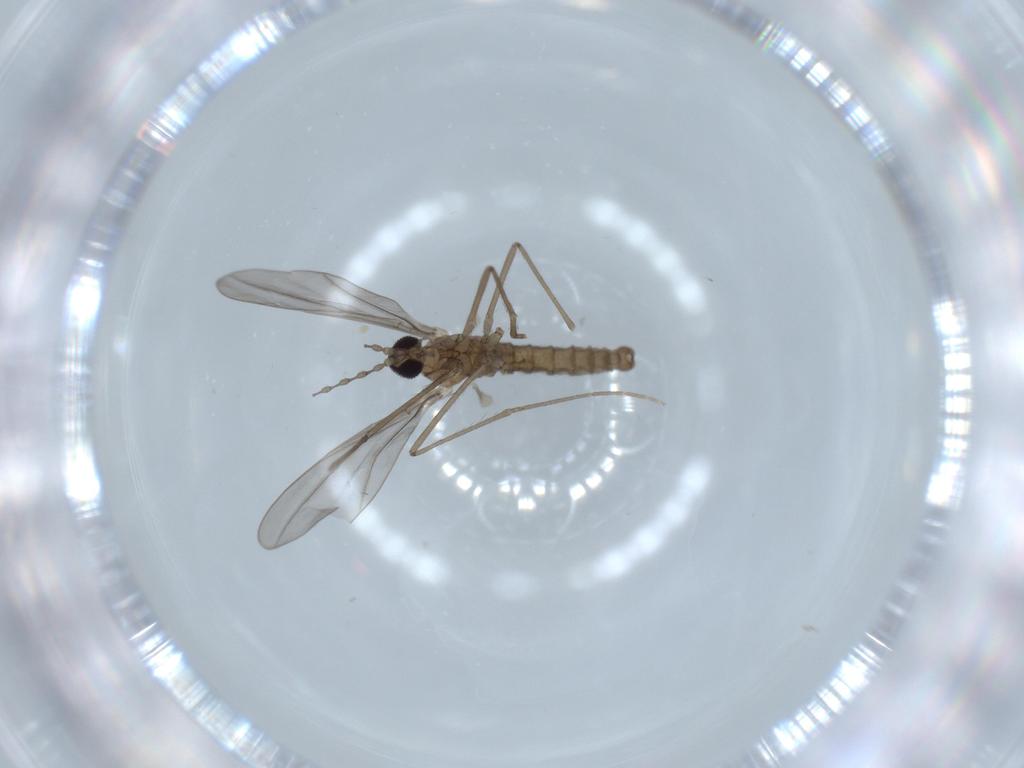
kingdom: Animalia
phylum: Arthropoda
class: Insecta
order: Diptera
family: Cecidomyiidae
